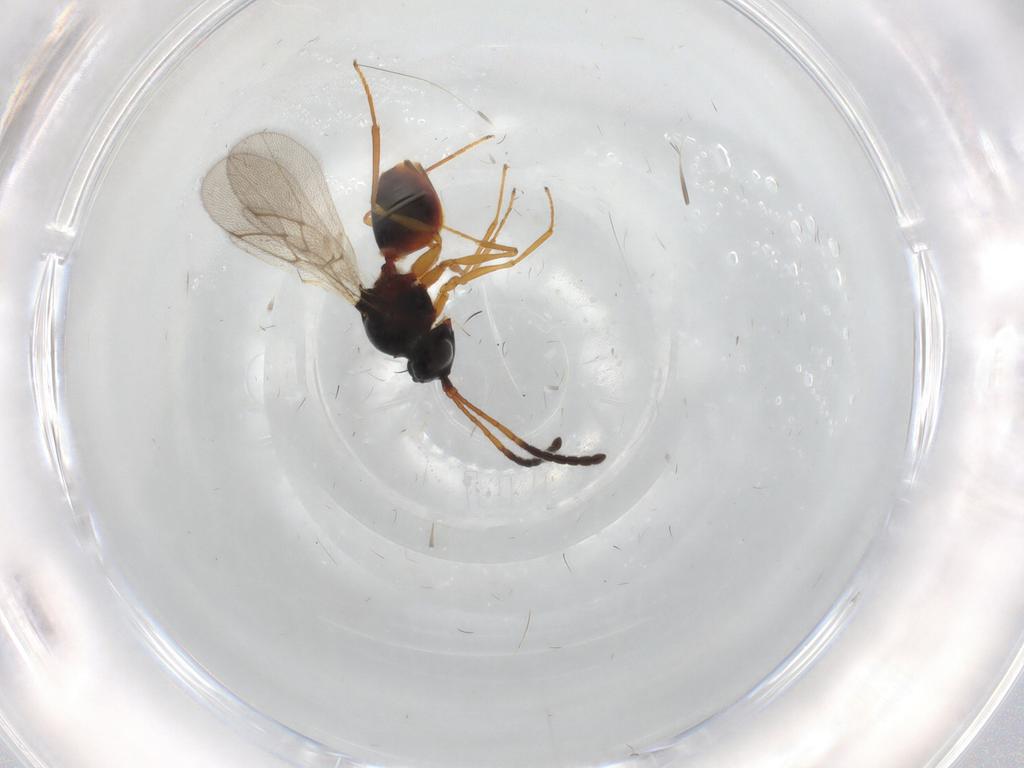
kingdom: Animalia
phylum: Arthropoda
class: Insecta
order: Hymenoptera
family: Figitidae
